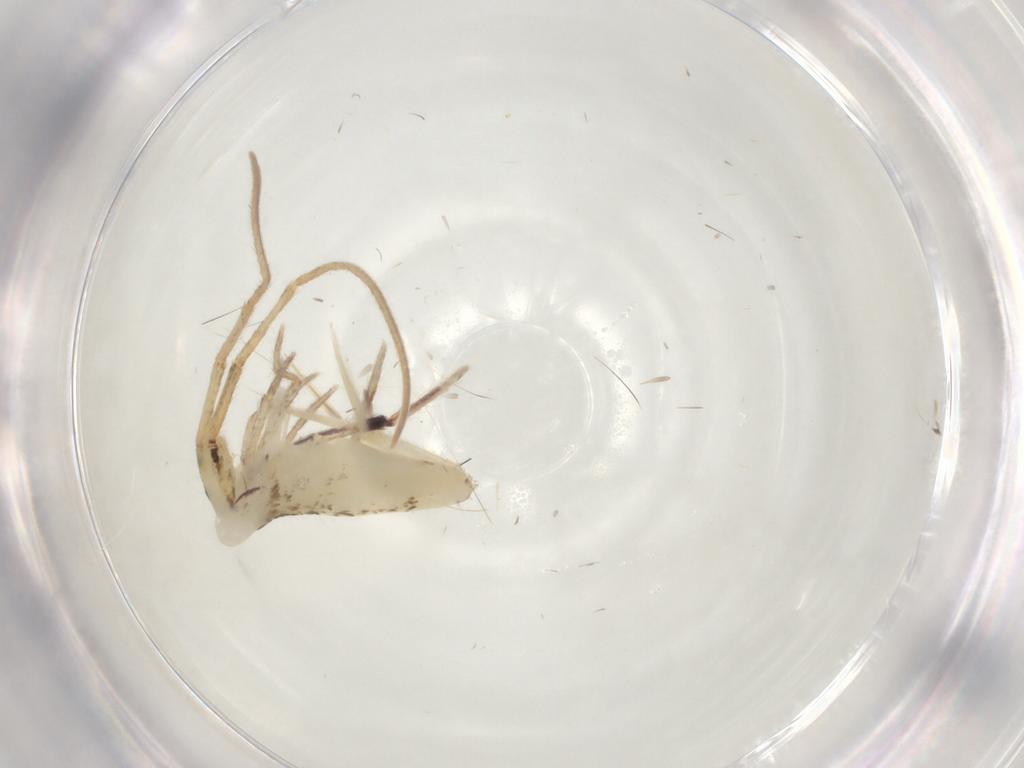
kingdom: Animalia
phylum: Arthropoda
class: Collembola
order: Entomobryomorpha
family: Entomobryidae
